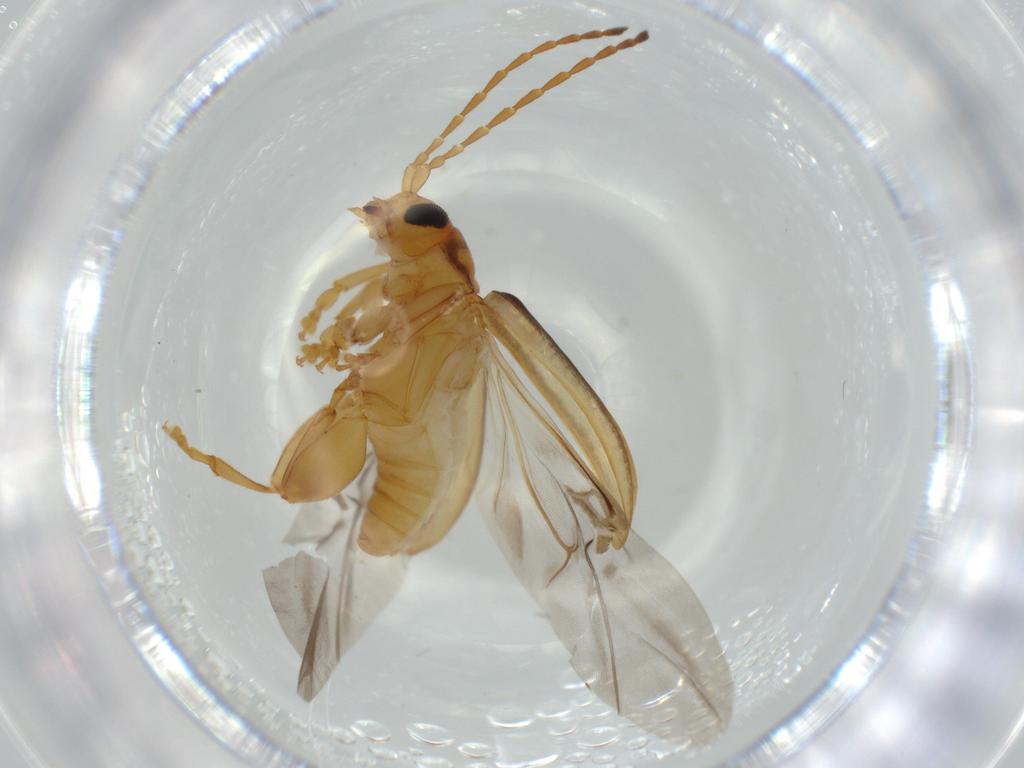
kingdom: Animalia
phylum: Arthropoda
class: Insecta
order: Coleoptera
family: Chrysomelidae
